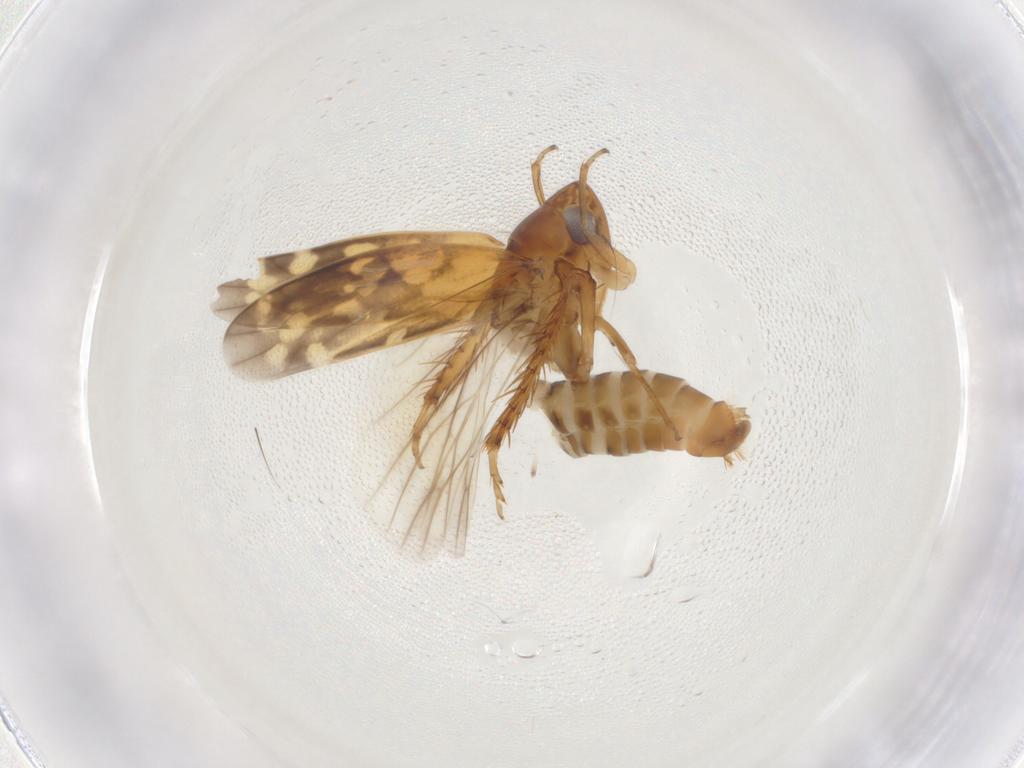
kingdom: Animalia
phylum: Arthropoda
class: Insecta
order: Hemiptera
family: Cicadellidae
